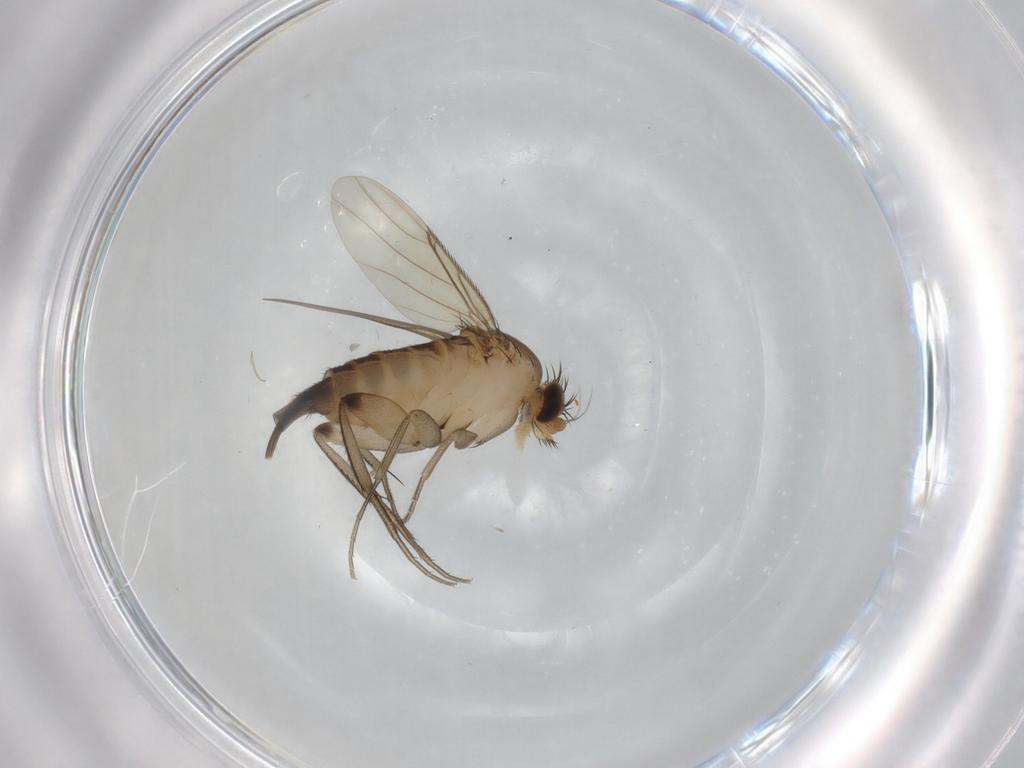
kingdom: Animalia
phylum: Arthropoda
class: Insecta
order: Diptera
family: Phoridae
